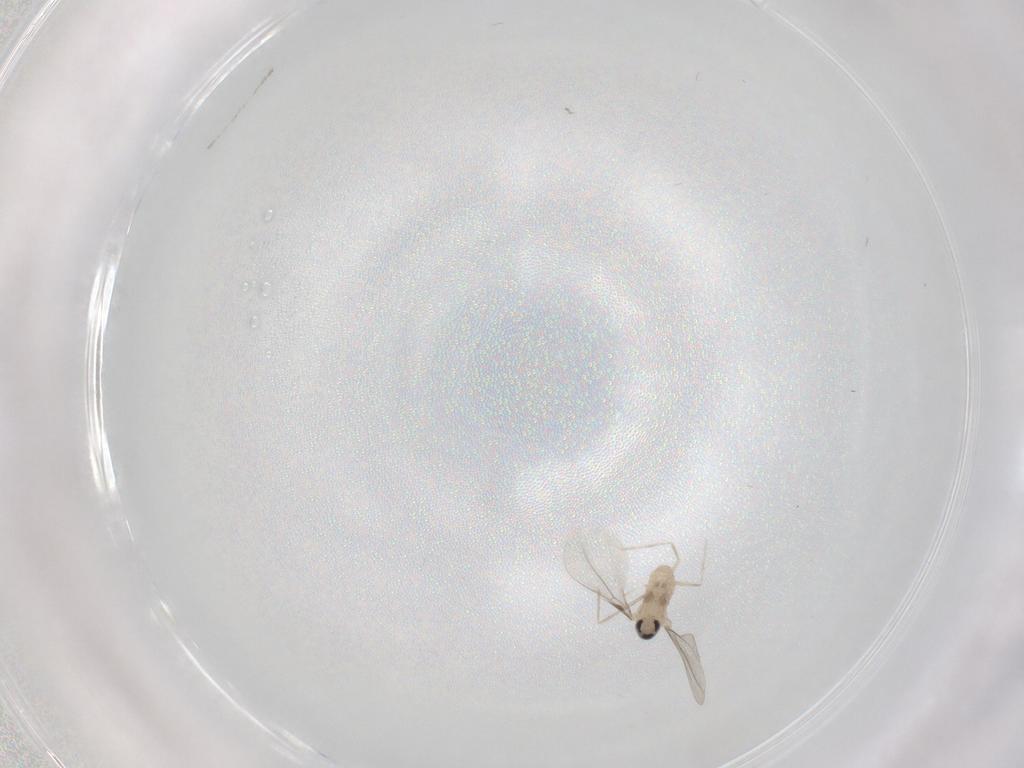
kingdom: Animalia
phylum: Arthropoda
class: Insecta
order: Diptera
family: Cecidomyiidae
